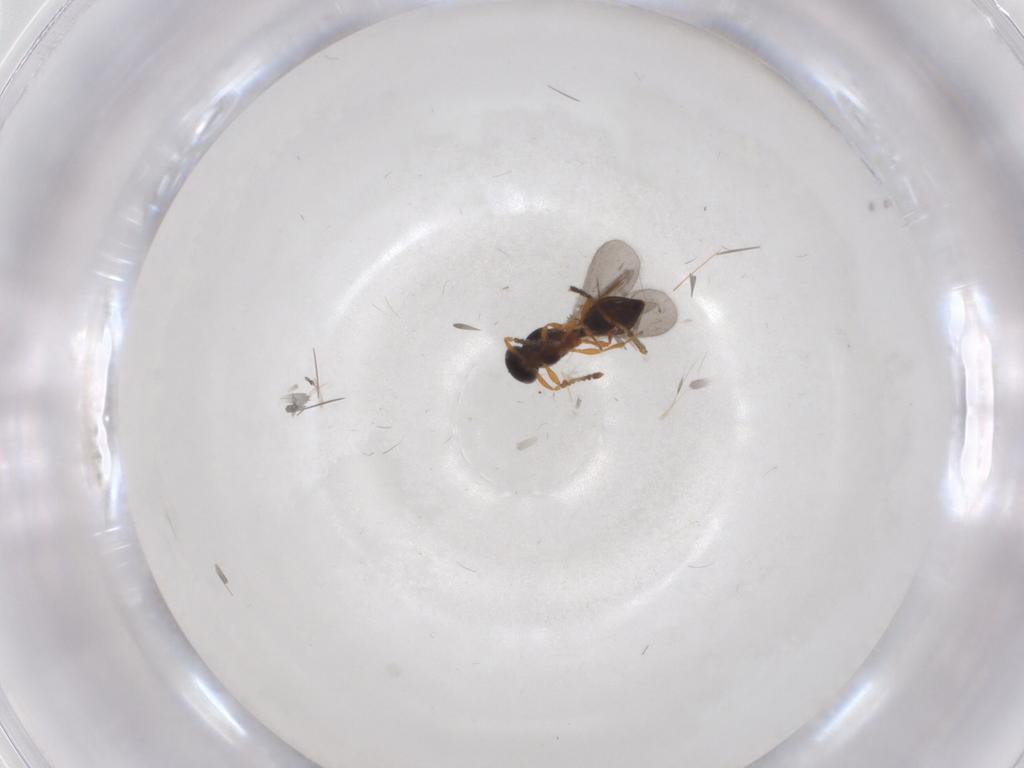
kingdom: Animalia
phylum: Arthropoda
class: Insecta
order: Hymenoptera
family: Platygastridae
